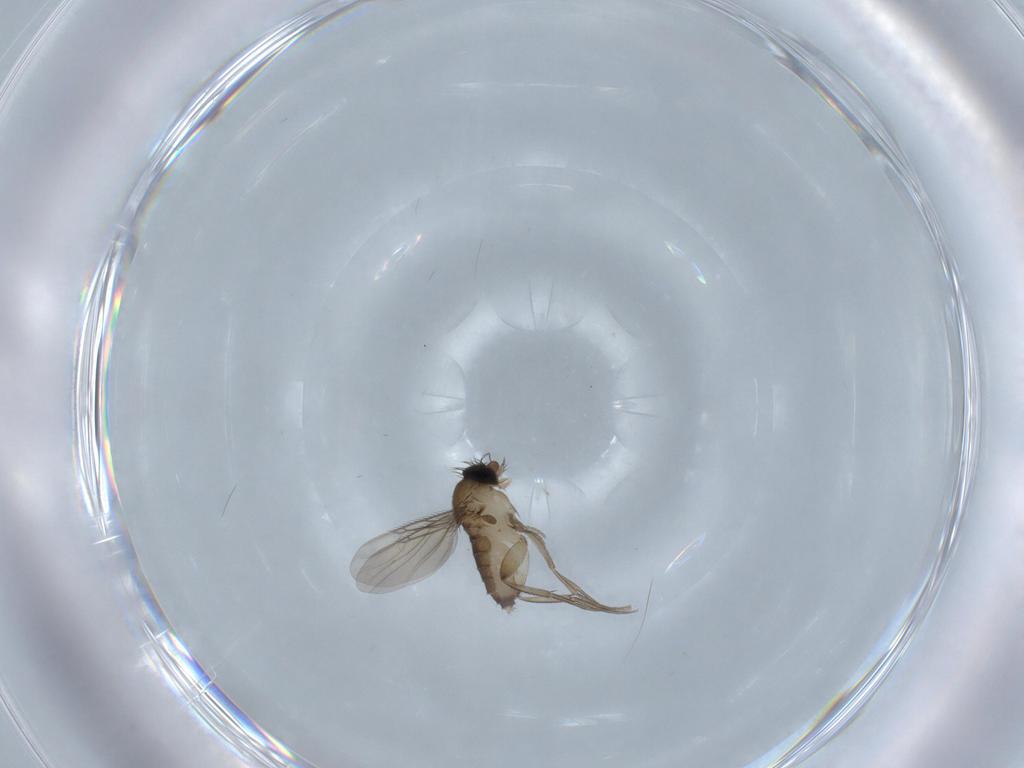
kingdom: Animalia
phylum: Arthropoda
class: Insecta
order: Diptera
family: Phoridae
